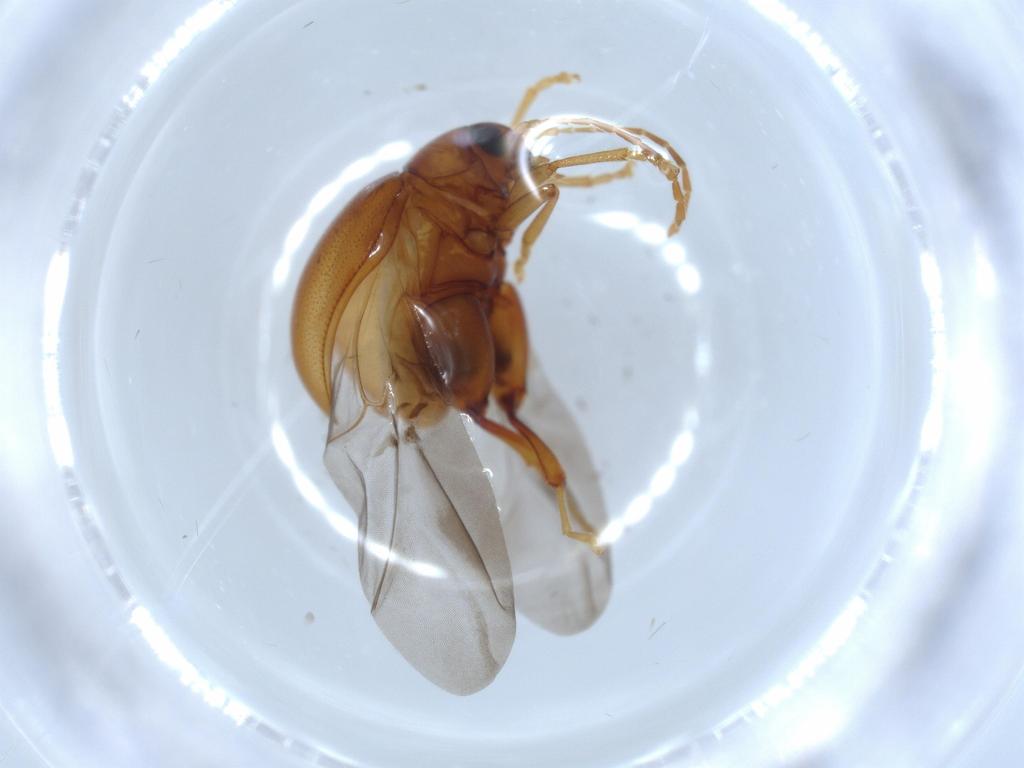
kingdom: Animalia
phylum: Arthropoda
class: Insecta
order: Coleoptera
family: Chrysomelidae
